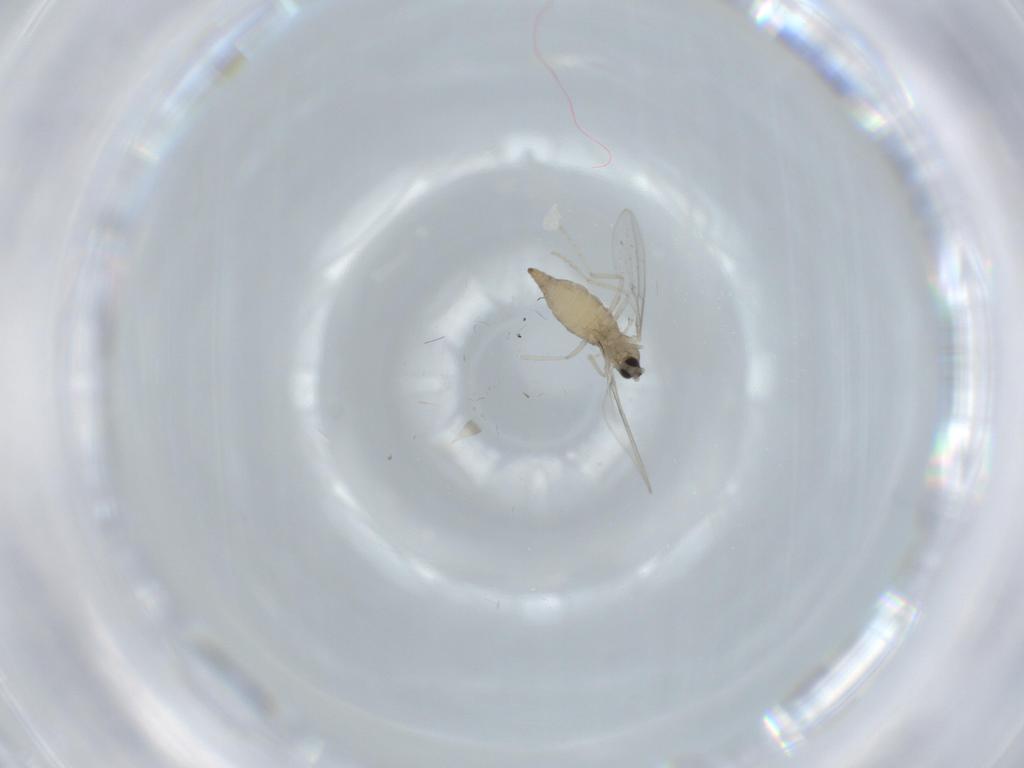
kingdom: Animalia
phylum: Arthropoda
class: Insecta
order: Diptera
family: Cecidomyiidae
